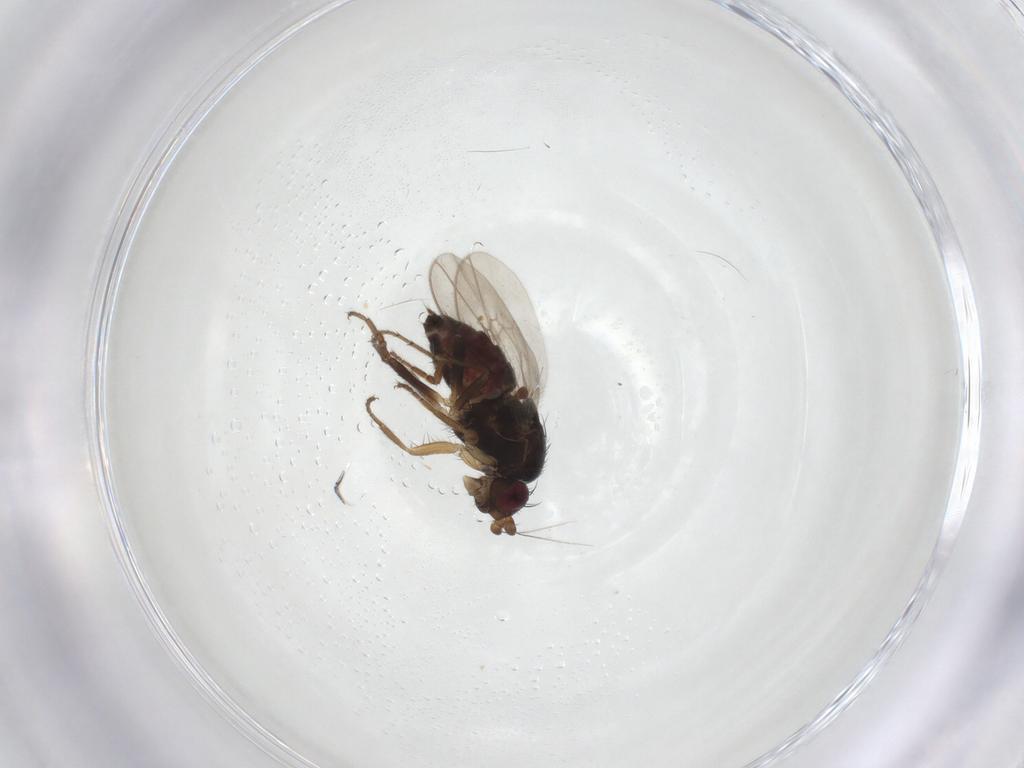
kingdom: Animalia
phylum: Arthropoda
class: Insecta
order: Diptera
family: Sphaeroceridae
